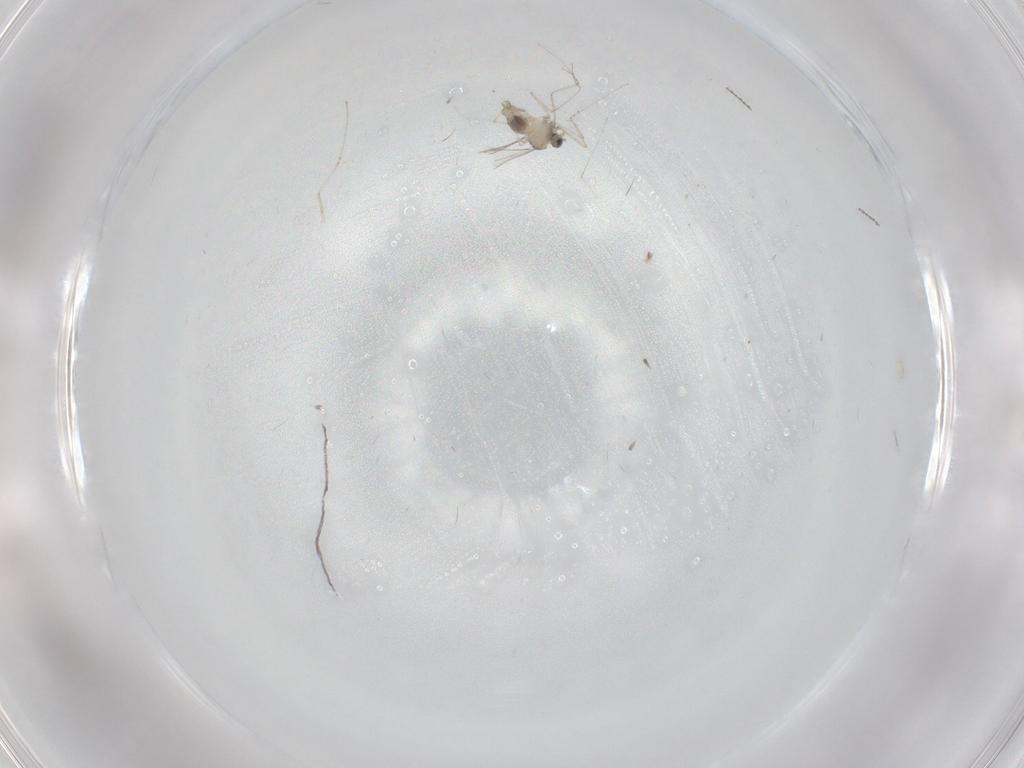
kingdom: Animalia
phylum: Arthropoda
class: Insecta
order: Diptera
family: Cecidomyiidae
